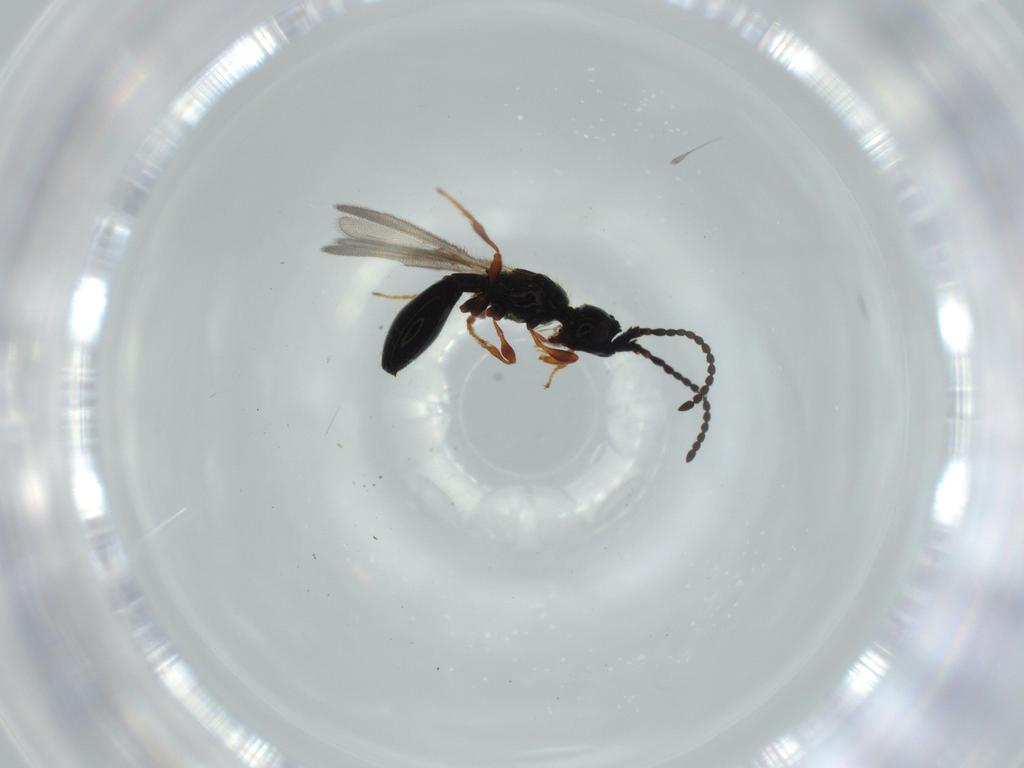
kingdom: Animalia
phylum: Arthropoda
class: Insecta
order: Hymenoptera
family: Diapriidae
